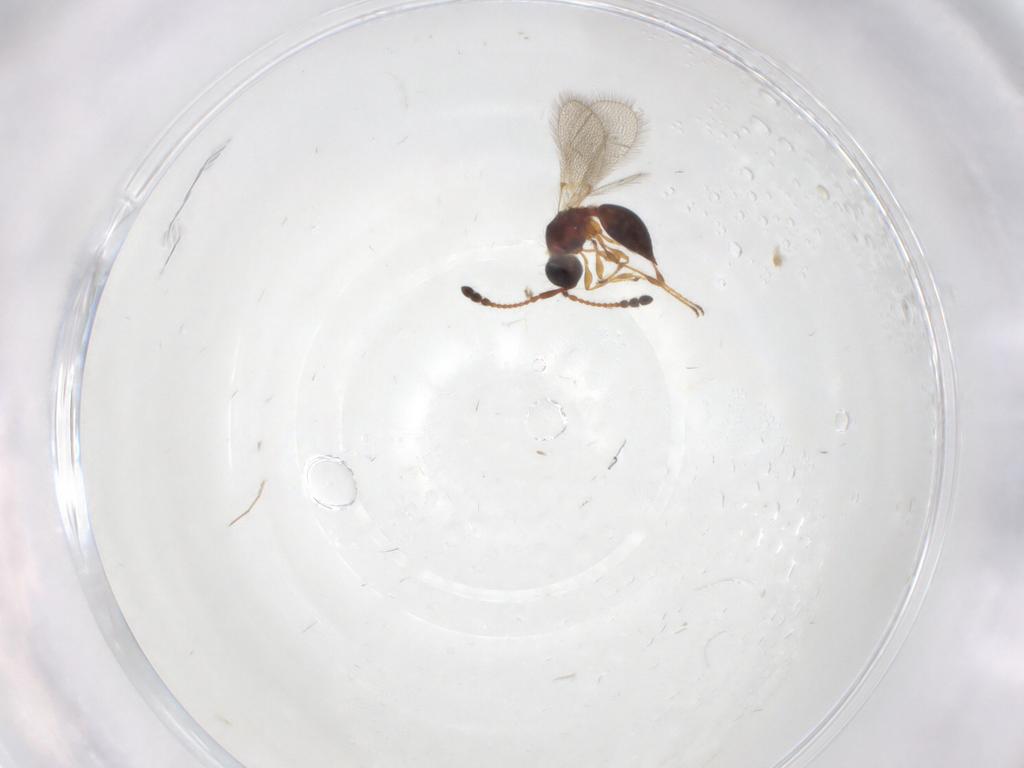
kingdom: Animalia
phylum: Arthropoda
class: Insecta
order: Hymenoptera
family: Diapriidae
